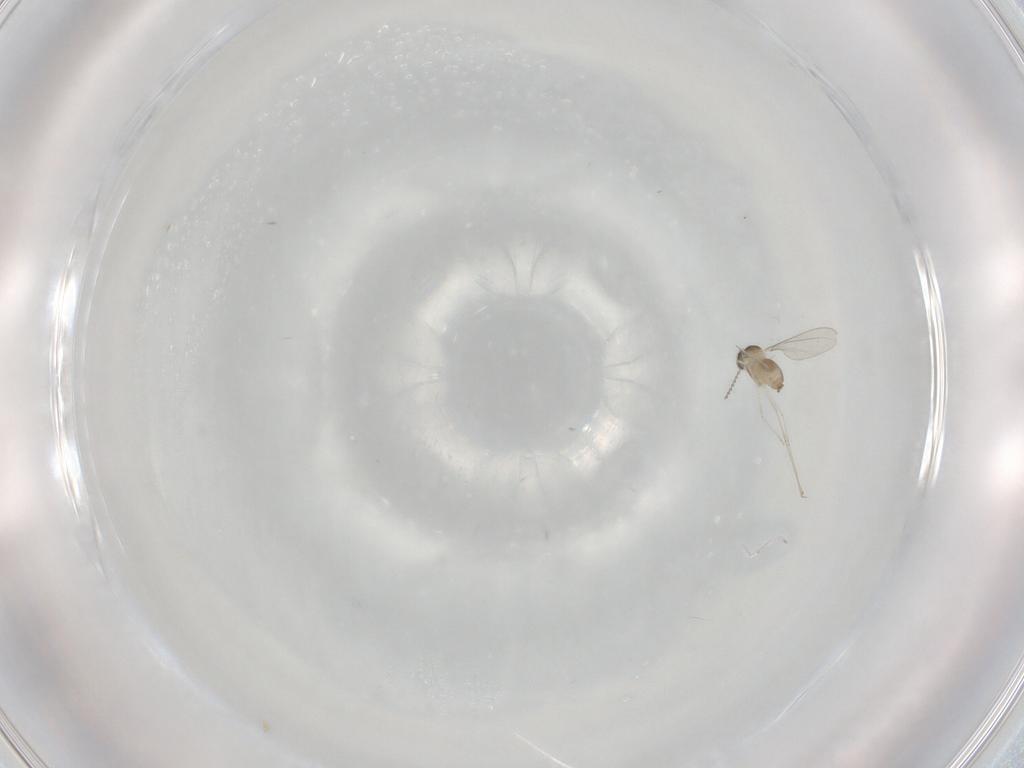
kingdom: Animalia
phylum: Arthropoda
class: Insecta
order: Diptera
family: Cecidomyiidae
